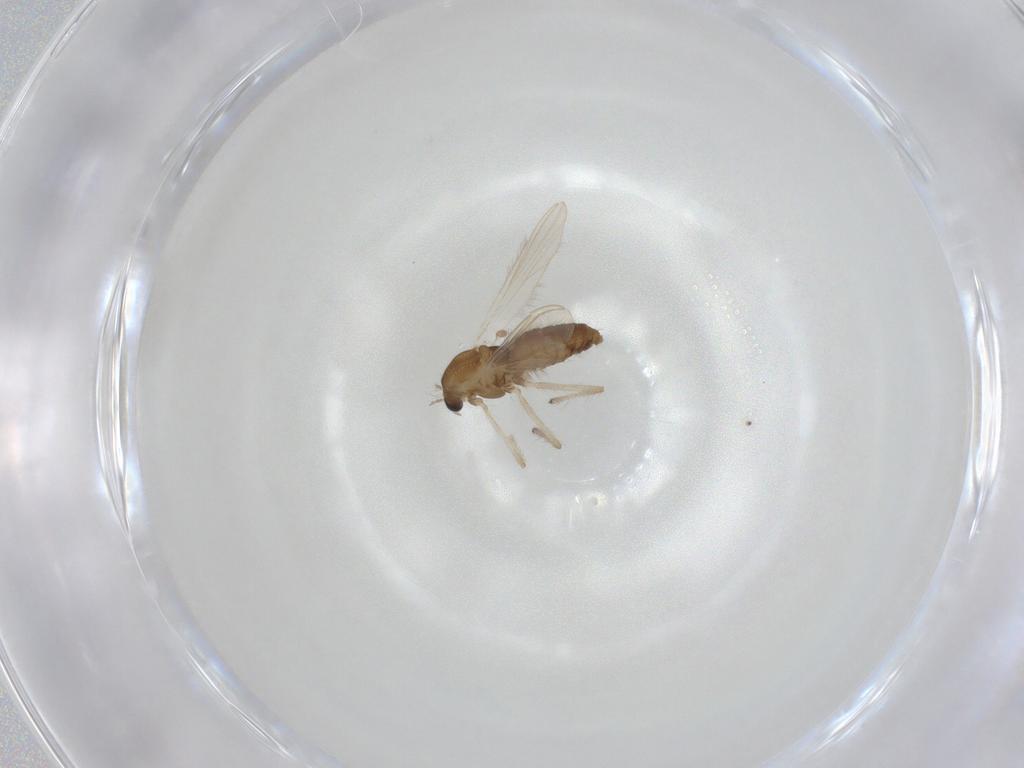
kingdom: Animalia
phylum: Arthropoda
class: Insecta
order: Diptera
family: Chironomidae
